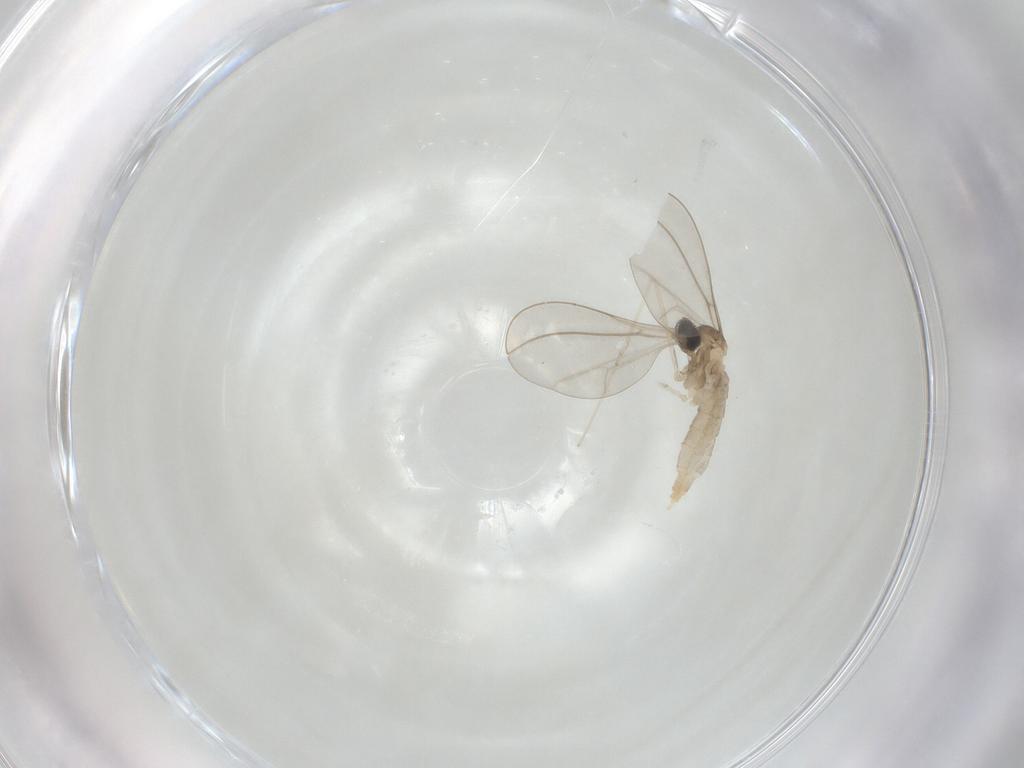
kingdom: Animalia
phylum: Arthropoda
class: Insecta
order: Diptera
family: Cecidomyiidae
